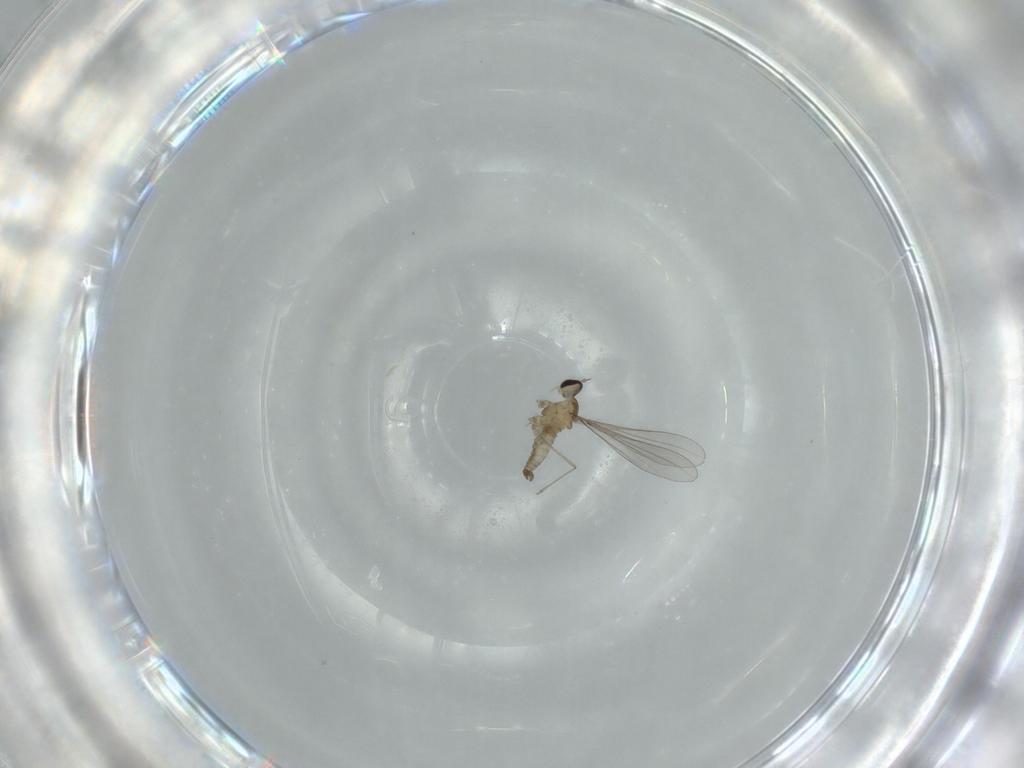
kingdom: Animalia
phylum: Arthropoda
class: Insecta
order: Diptera
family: Cecidomyiidae
